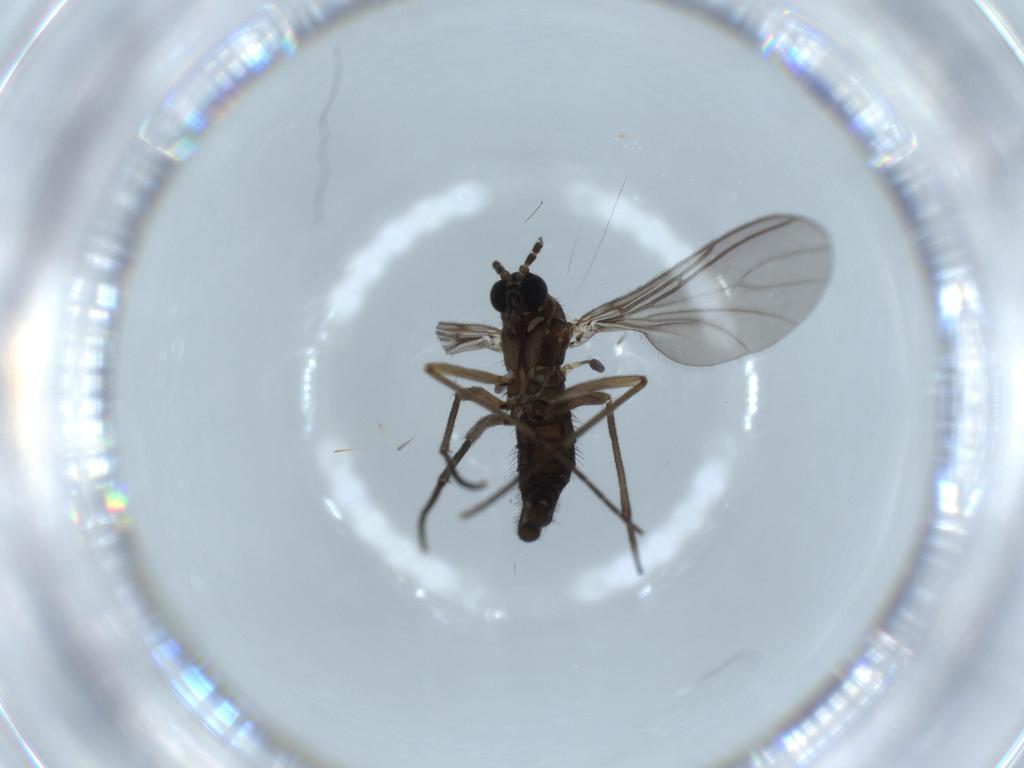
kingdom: Animalia
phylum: Arthropoda
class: Insecta
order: Diptera
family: Sciaridae
